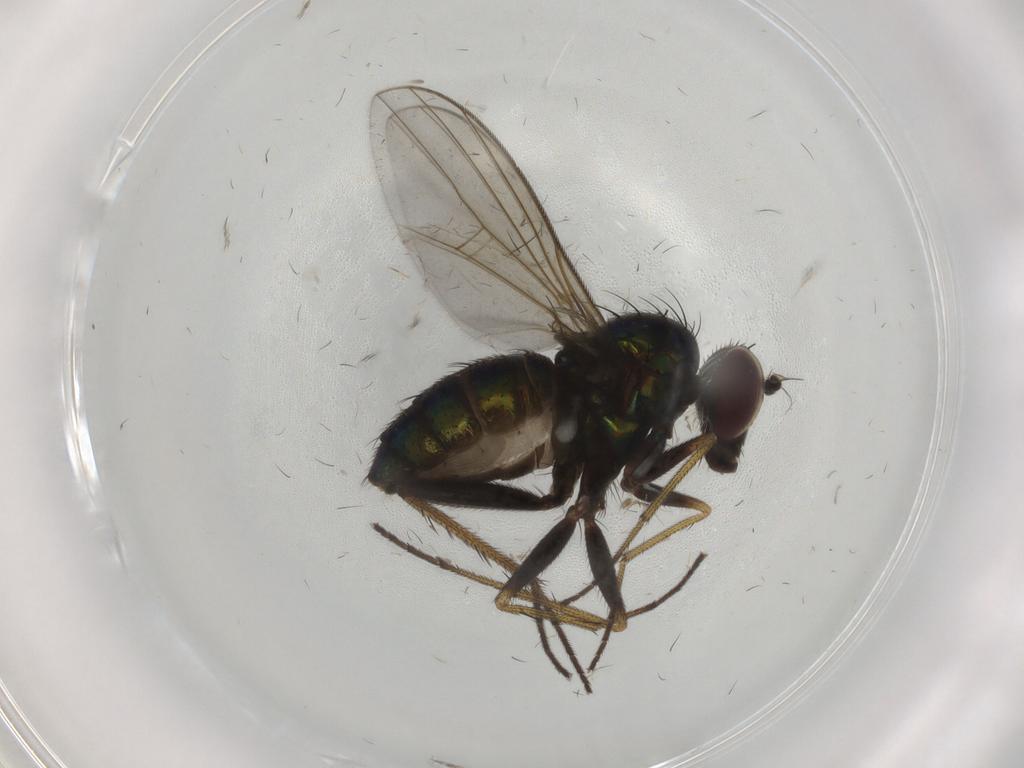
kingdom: Animalia
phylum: Arthropoda
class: Insecta
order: Diptera
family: Dolichopodidae
